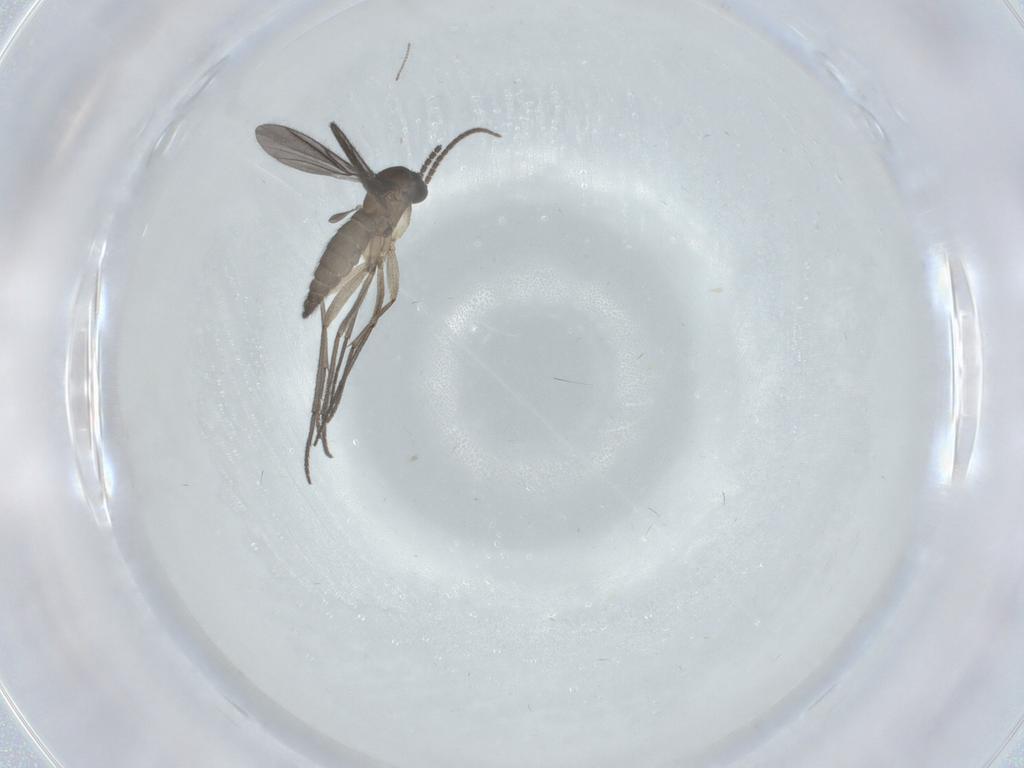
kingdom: Animalia
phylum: Arthropoda
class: Insecta
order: Diptera
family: Sciaridae
